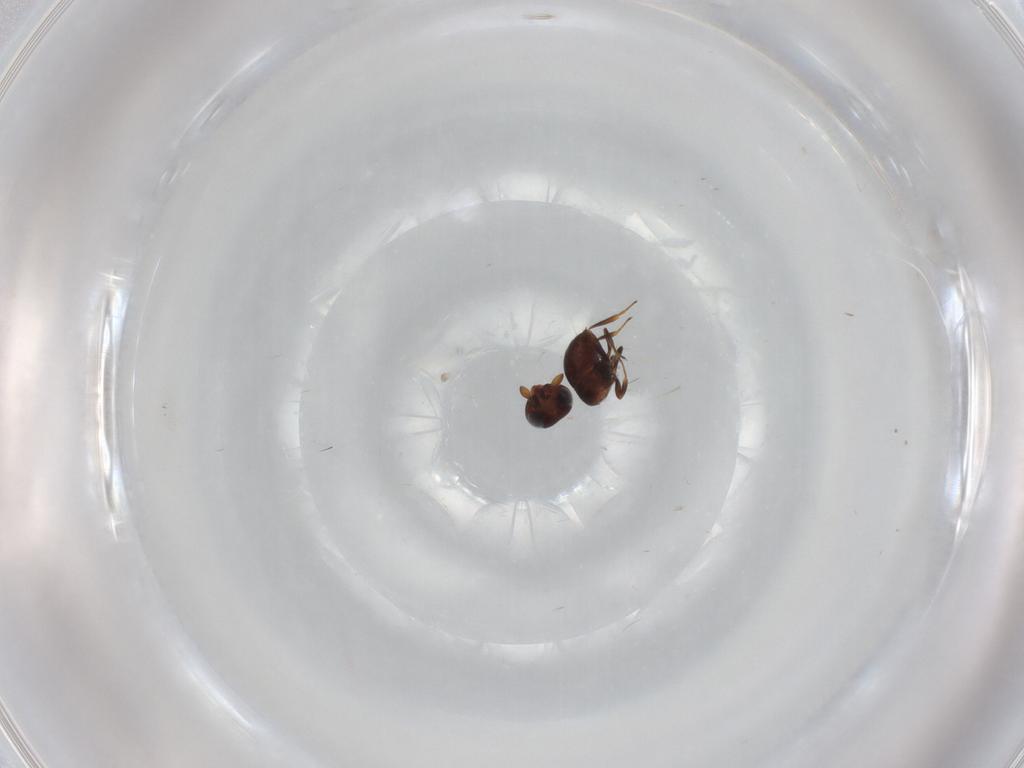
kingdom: Animalia
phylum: Arthropoda
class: Insecta
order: Hymenoptera
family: Scelionidae
